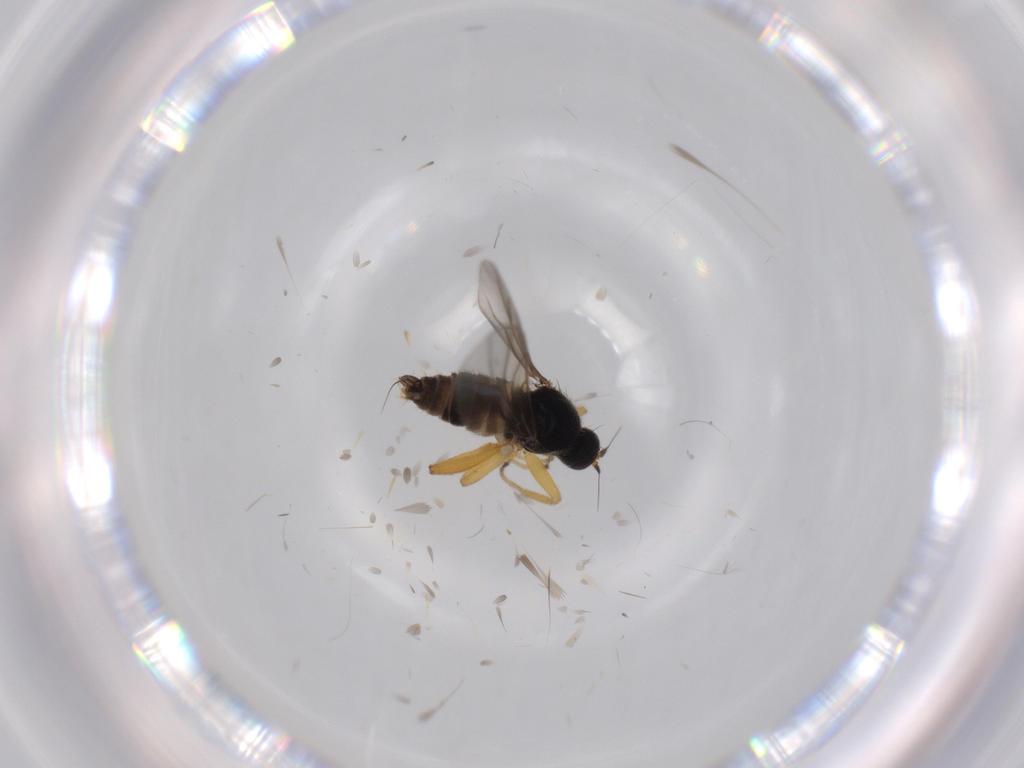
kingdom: Animalia
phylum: Arthropoda
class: Insecta
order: Diptera
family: Hybotidae
